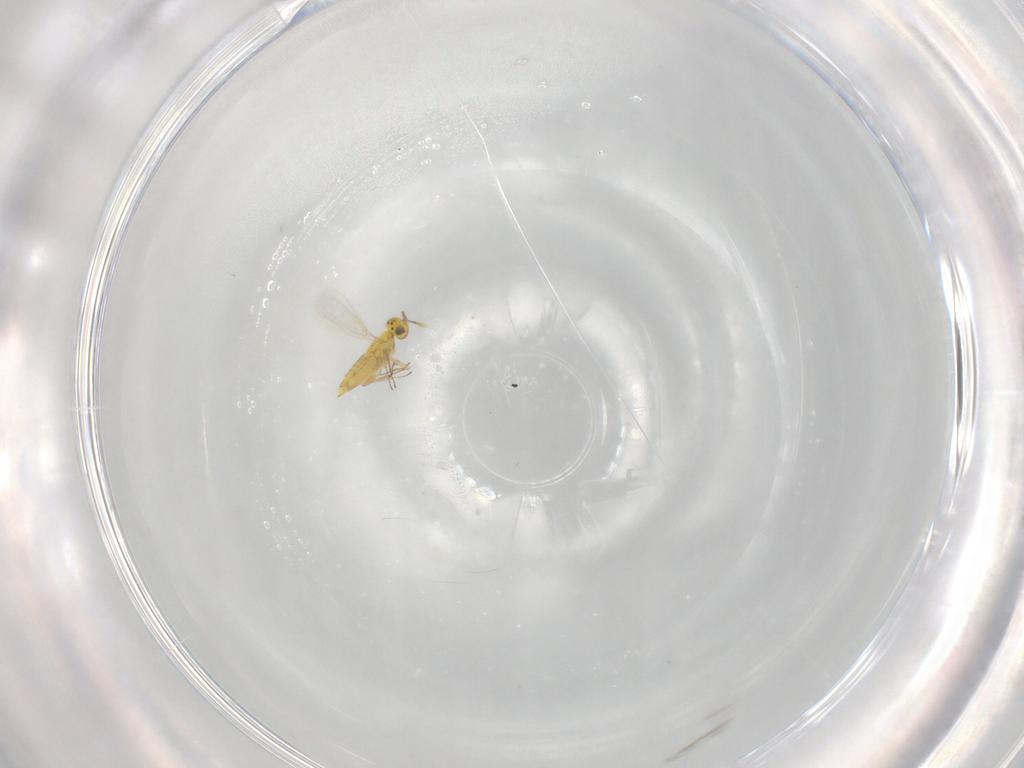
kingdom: Animalia
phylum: Arthropoda
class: Insecta
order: Hymenoptera
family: Aphelinidae
